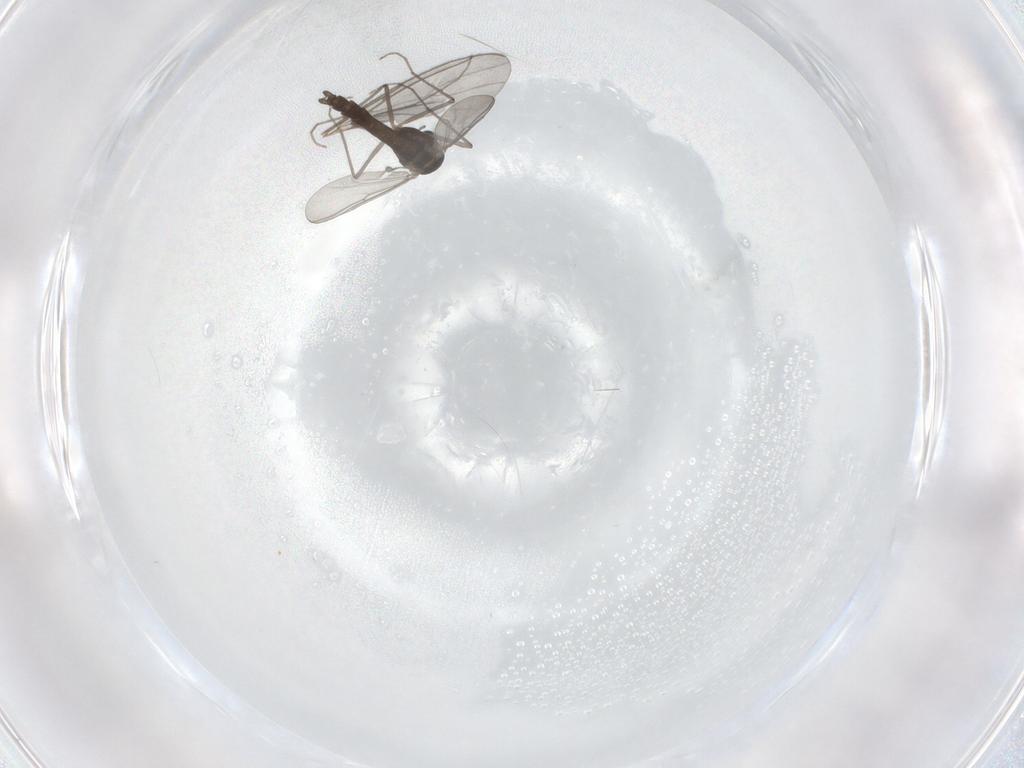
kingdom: Animalia
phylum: Arthropoda
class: Insecta
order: Diptera
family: Chironomidae
